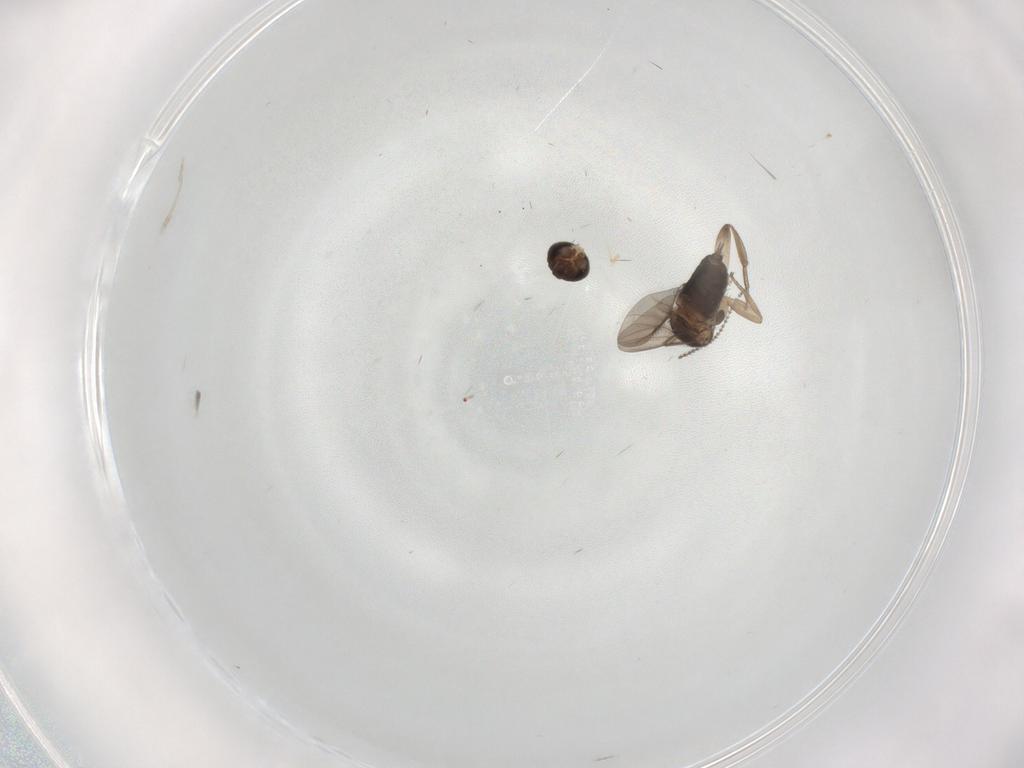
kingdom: Animalia
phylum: Arthropoda
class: Insecta
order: Diptera
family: Phoridae
